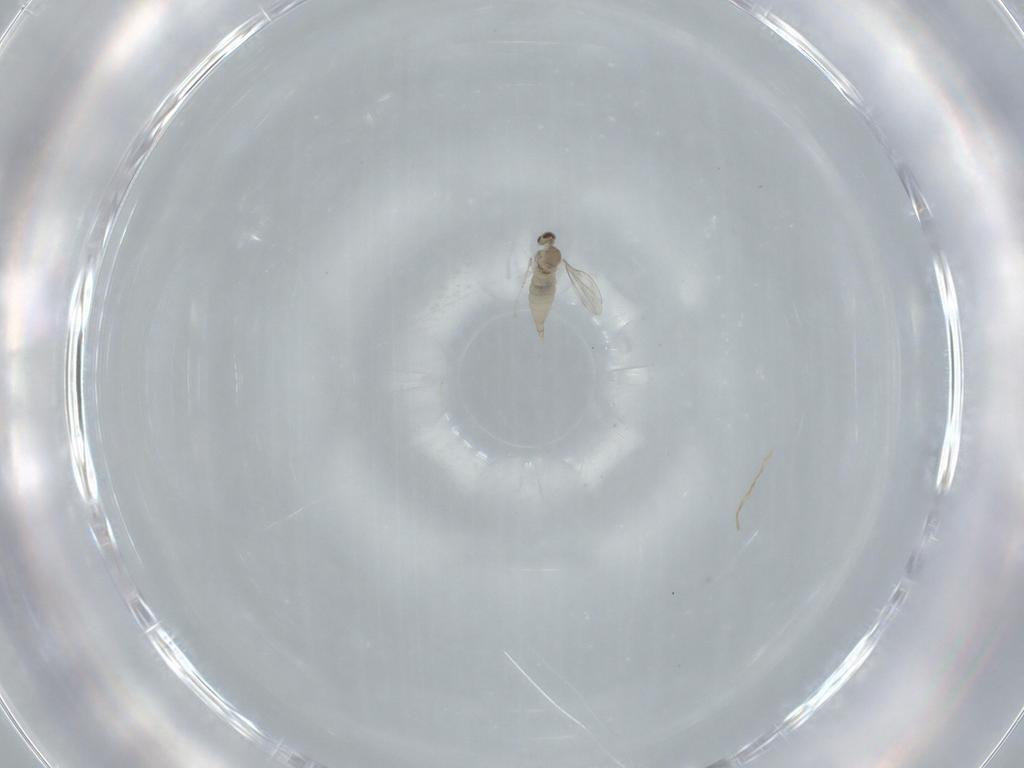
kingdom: Animalia
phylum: Arthropoda
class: Insecta
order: Diptera
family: Cecidomyiidae
